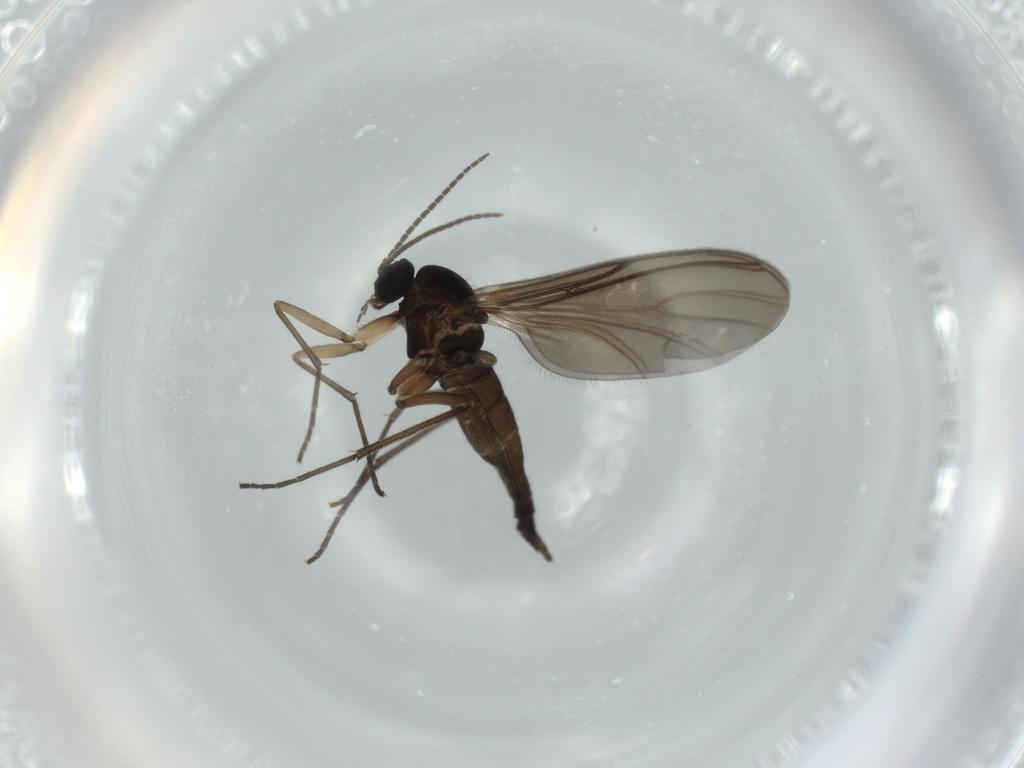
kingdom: Animalia
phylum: Arthropoda
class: Insecta
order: Diptera
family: Sciaridae
